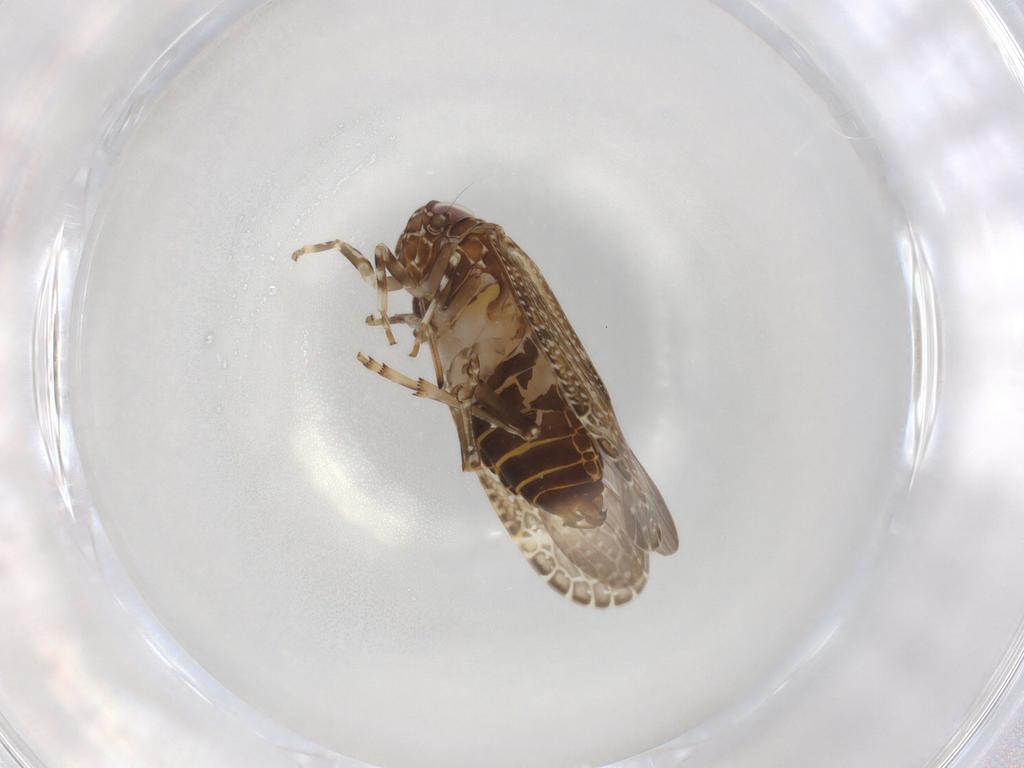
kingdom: Animalia
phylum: Arthropoda
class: Insecta
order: Hemiptera
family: Achilidae
